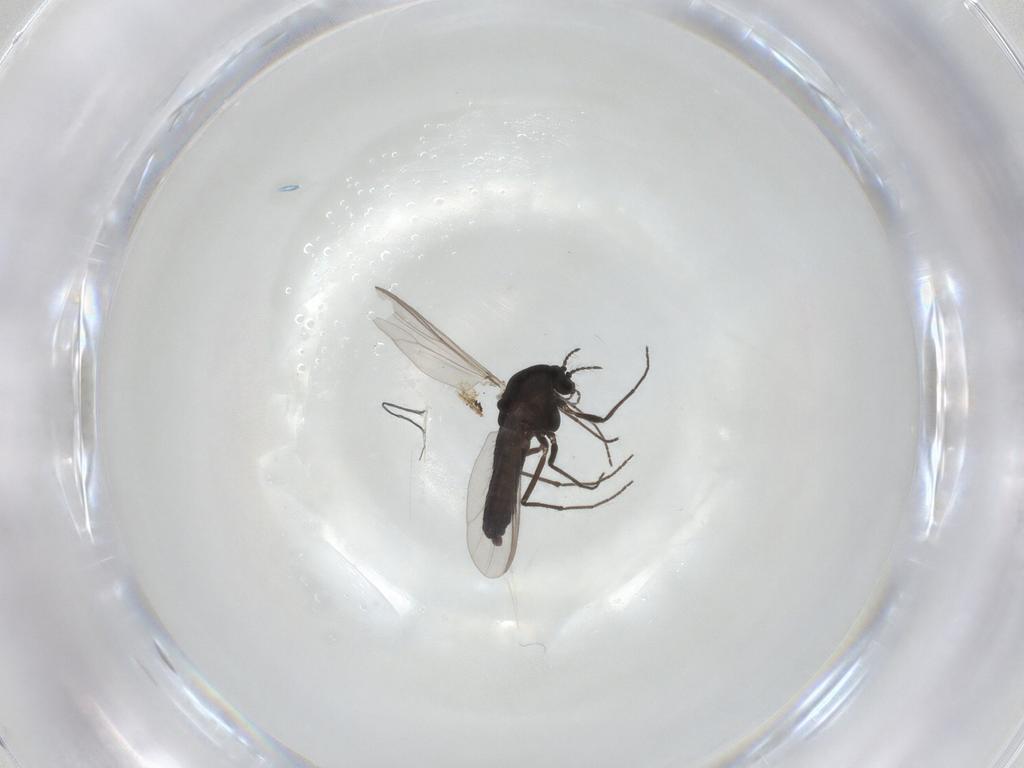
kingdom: Animalia
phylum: Arthropoda
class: Insecta
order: Diptera
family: Chironomidae
